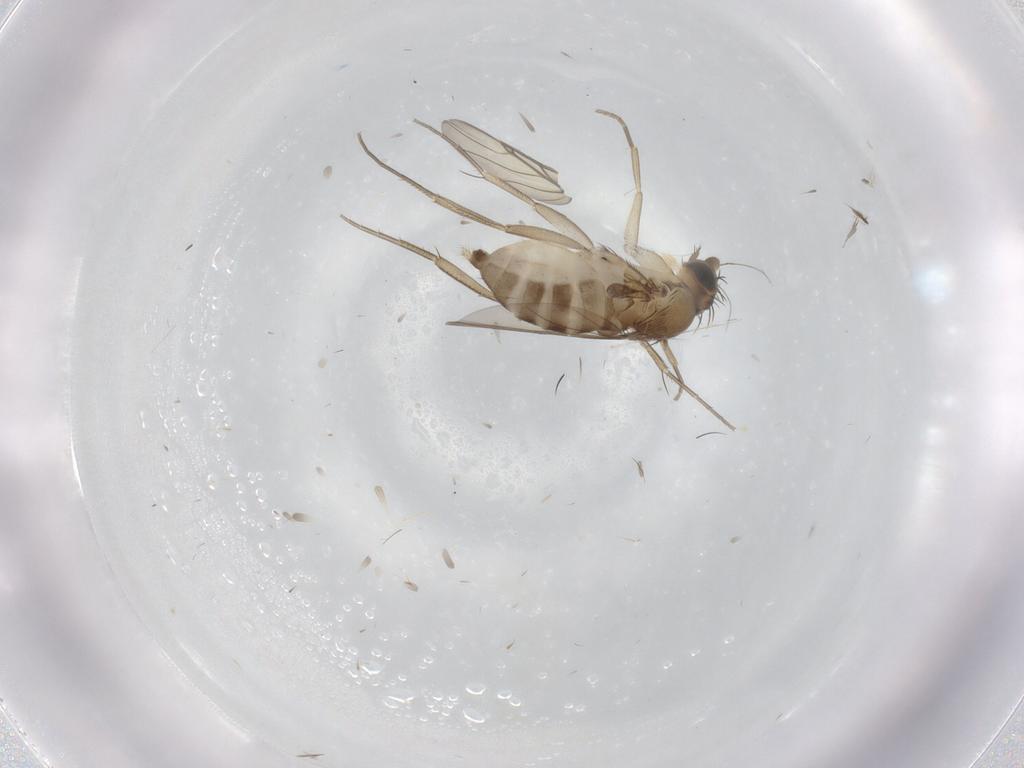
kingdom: Animalia
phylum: Arthropoda
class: Insecta
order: Diptera
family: Phoridae
